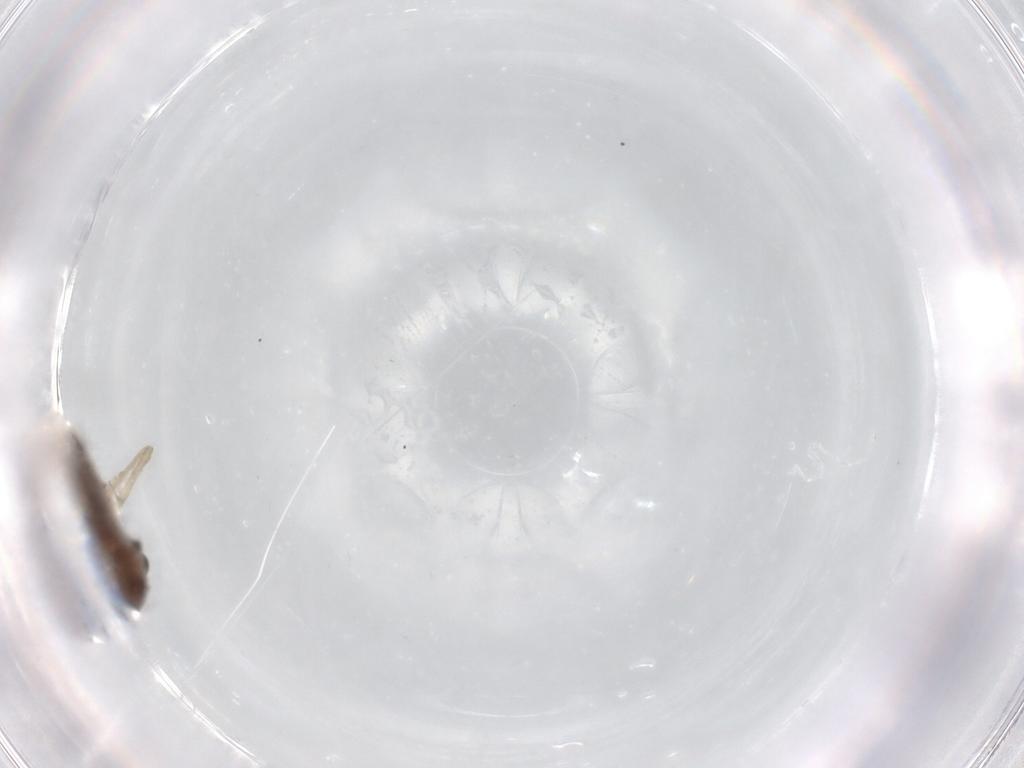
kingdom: Animalia
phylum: Arthropoda
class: Insecta
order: Diptera
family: Chironomidae
